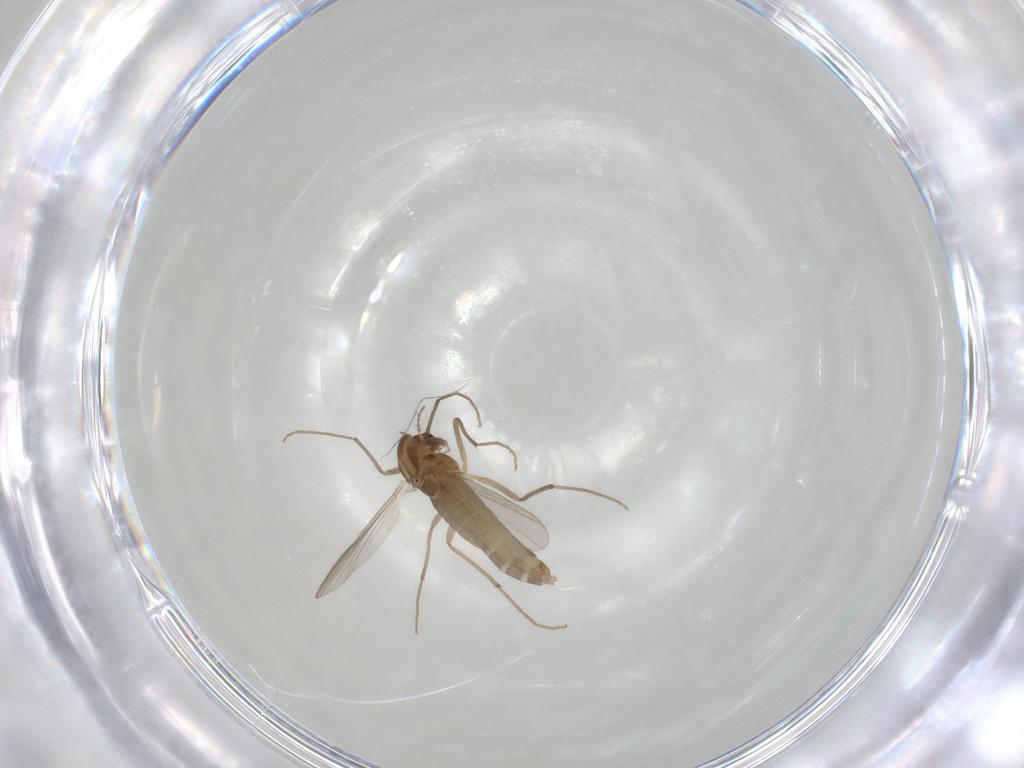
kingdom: Animalia
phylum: Arthropoda
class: Insecta
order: Diptera
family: Chironomidae
